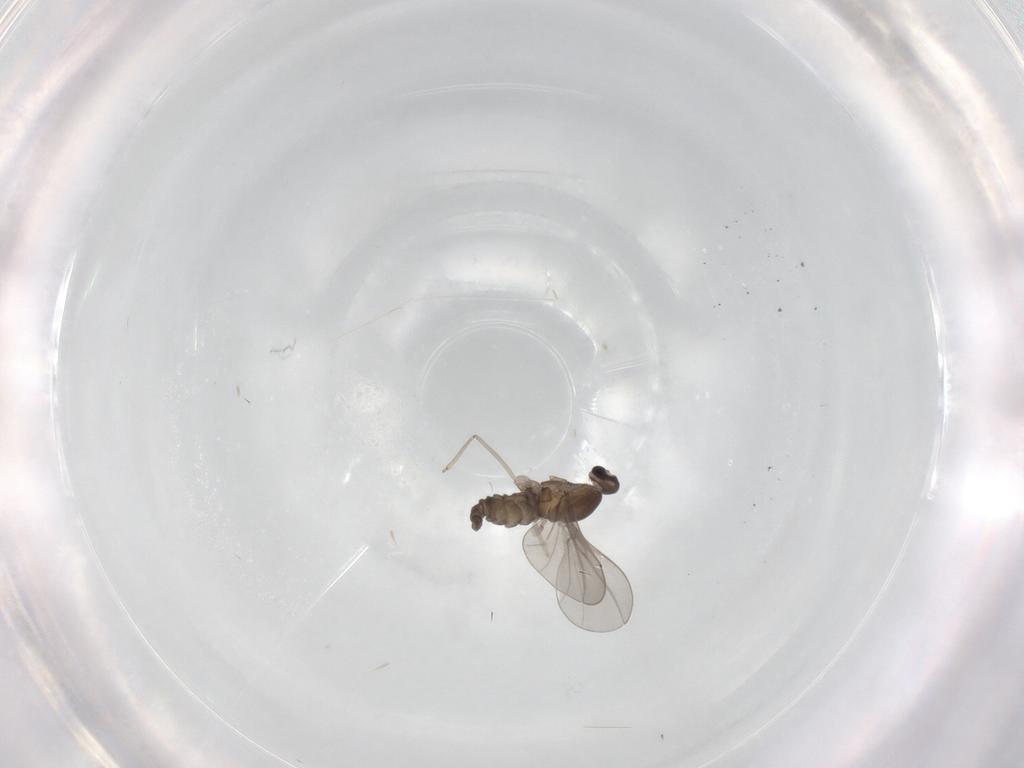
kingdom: Animalia
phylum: Arthropoda
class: Insecta
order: Diptera
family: Cecidomyiidae
